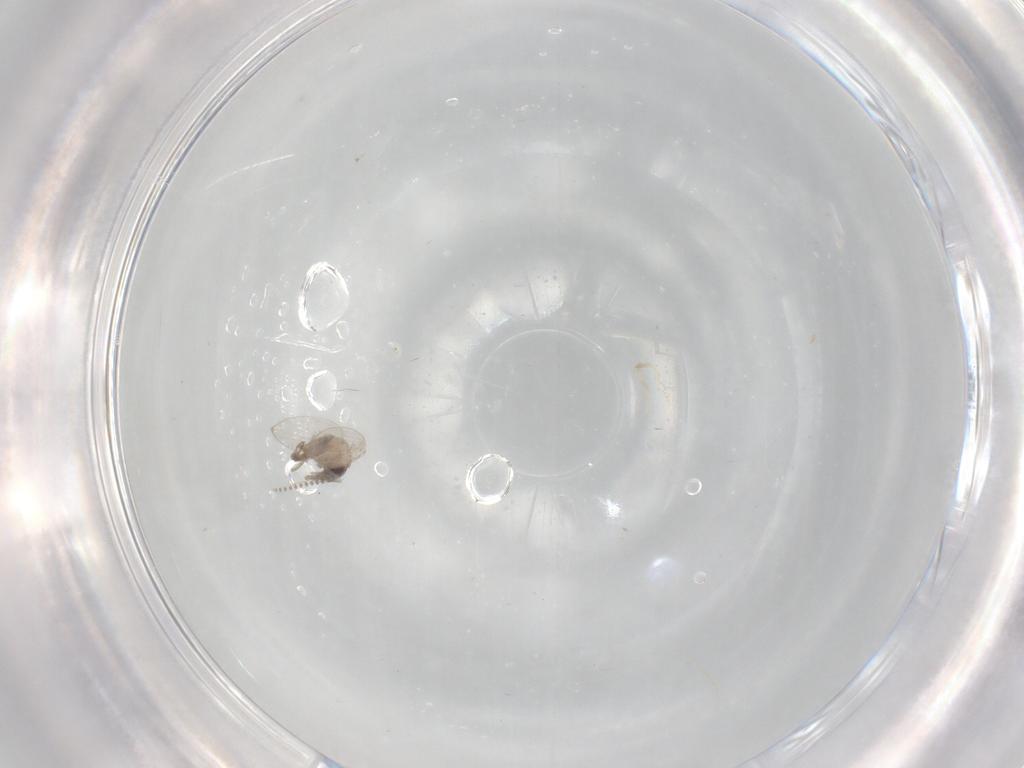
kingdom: Animalia
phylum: Arthropoda
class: Insecta
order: Diptera
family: Psychodidae
